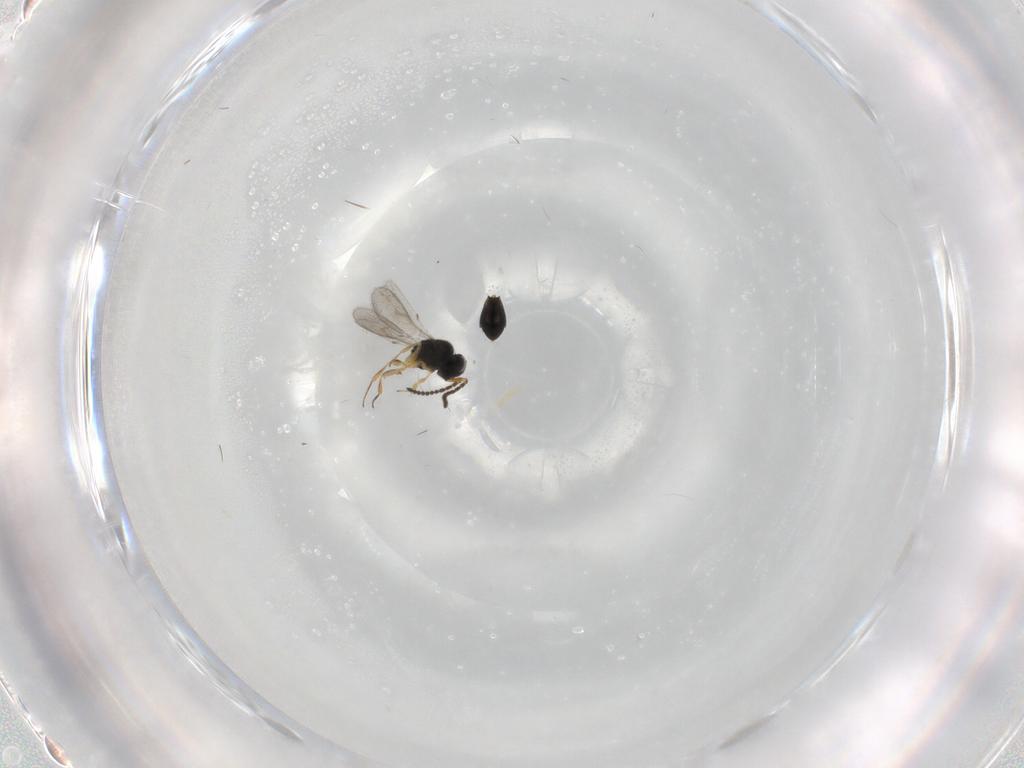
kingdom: Animalia
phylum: Arthropoda
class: Insecta
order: Hymenoptera
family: Scelionidae
